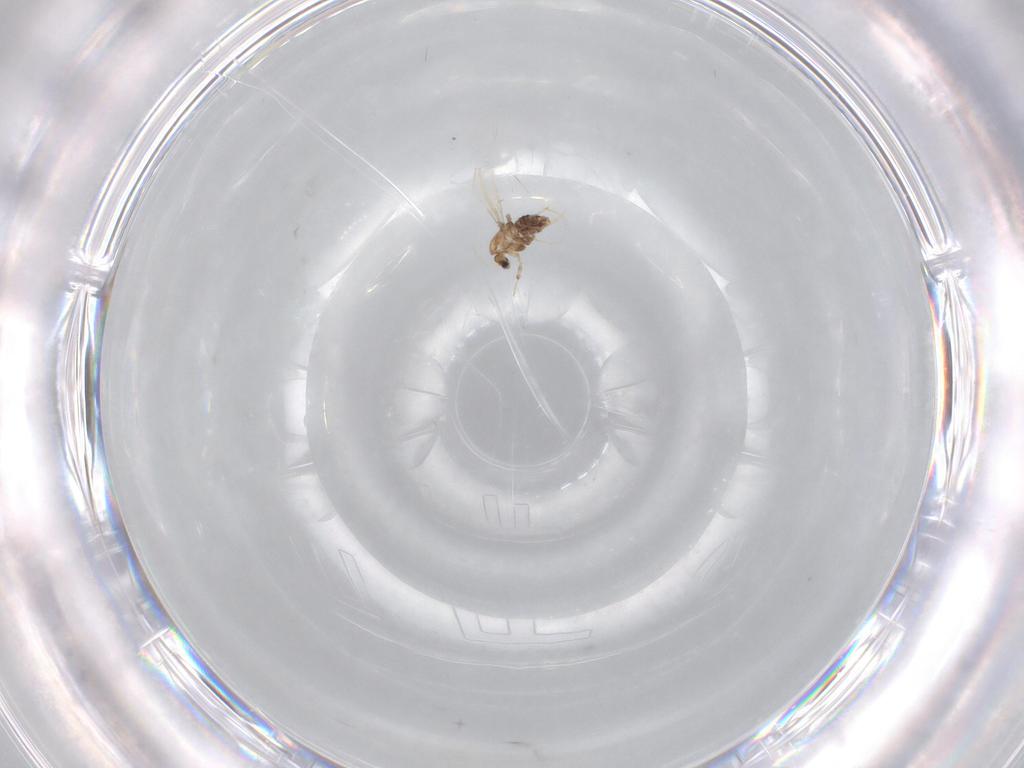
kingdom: Animalia
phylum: Arthropoda
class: Insecta
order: Diptera
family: Chironomidae
